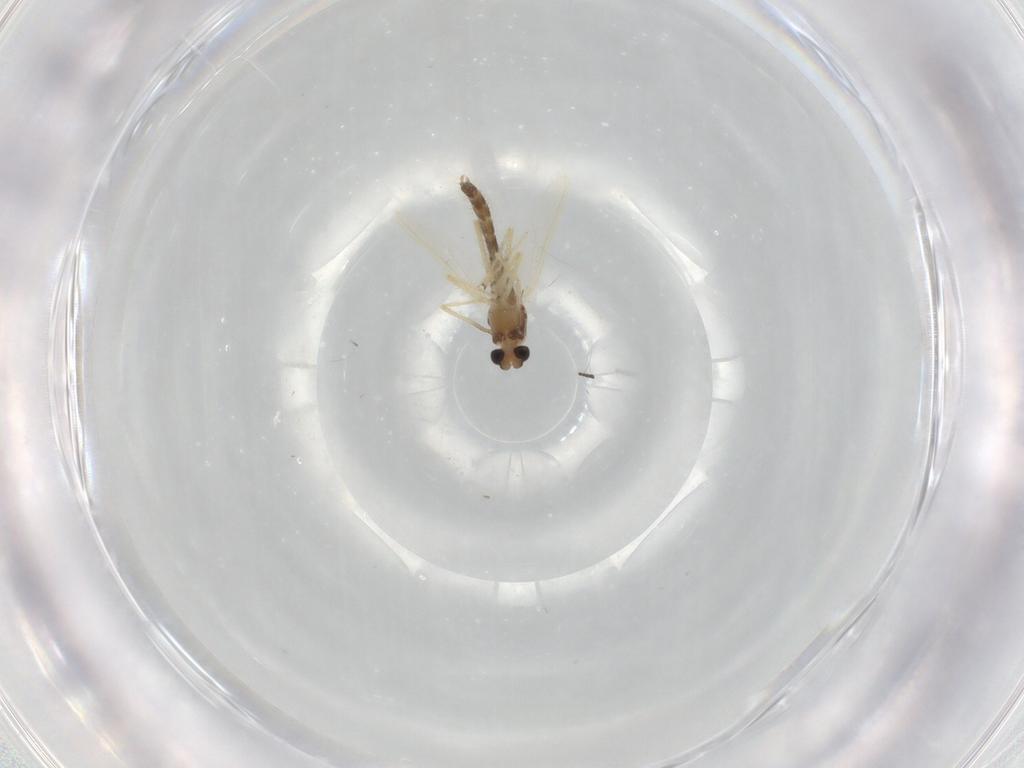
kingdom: Animalia
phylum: Arthropoda
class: Insecta
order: Diptera
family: Chironomidae
